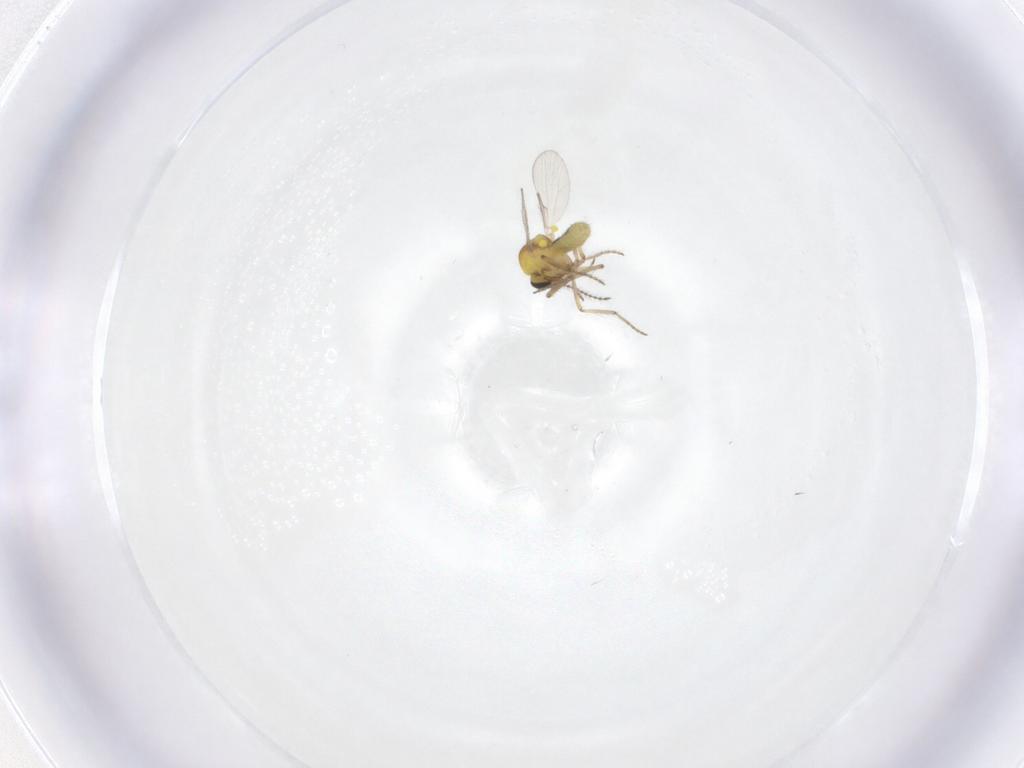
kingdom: Animalia
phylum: Arthropoda
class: Insecta
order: Diptera
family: Ceratopogonidae
